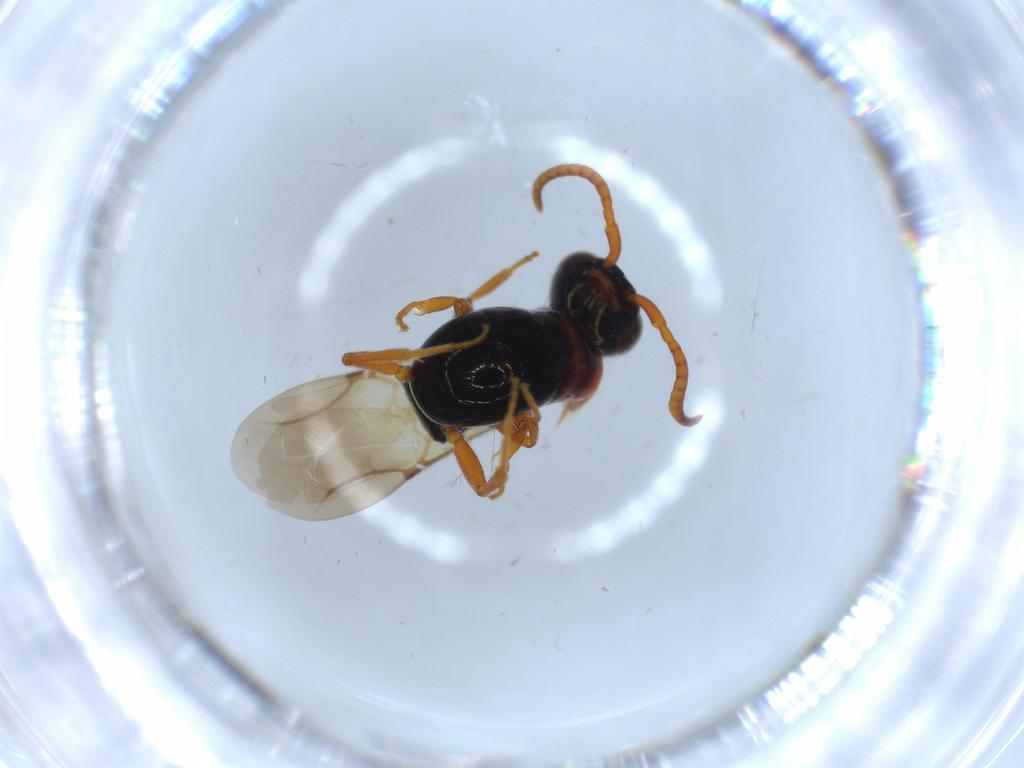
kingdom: Animalia
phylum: Arthropoda
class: Insecta
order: Hymenoptera
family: Bethylidae
